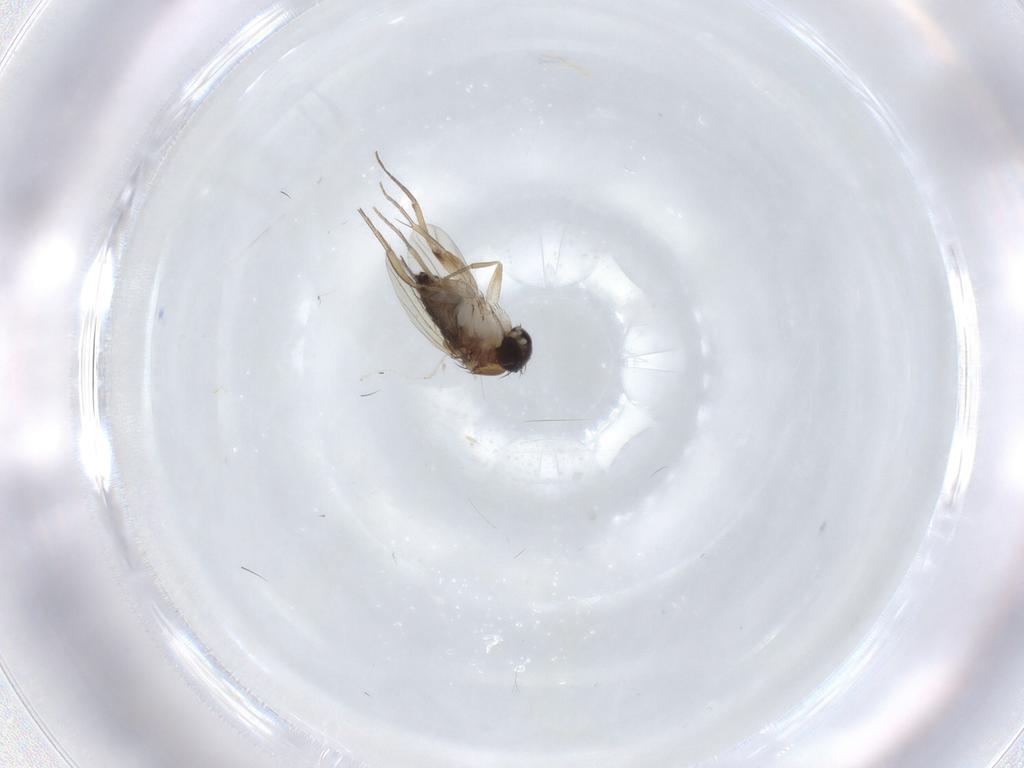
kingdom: Animalia
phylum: Arthropoda
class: Insecta
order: Diptera
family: Phoridae
